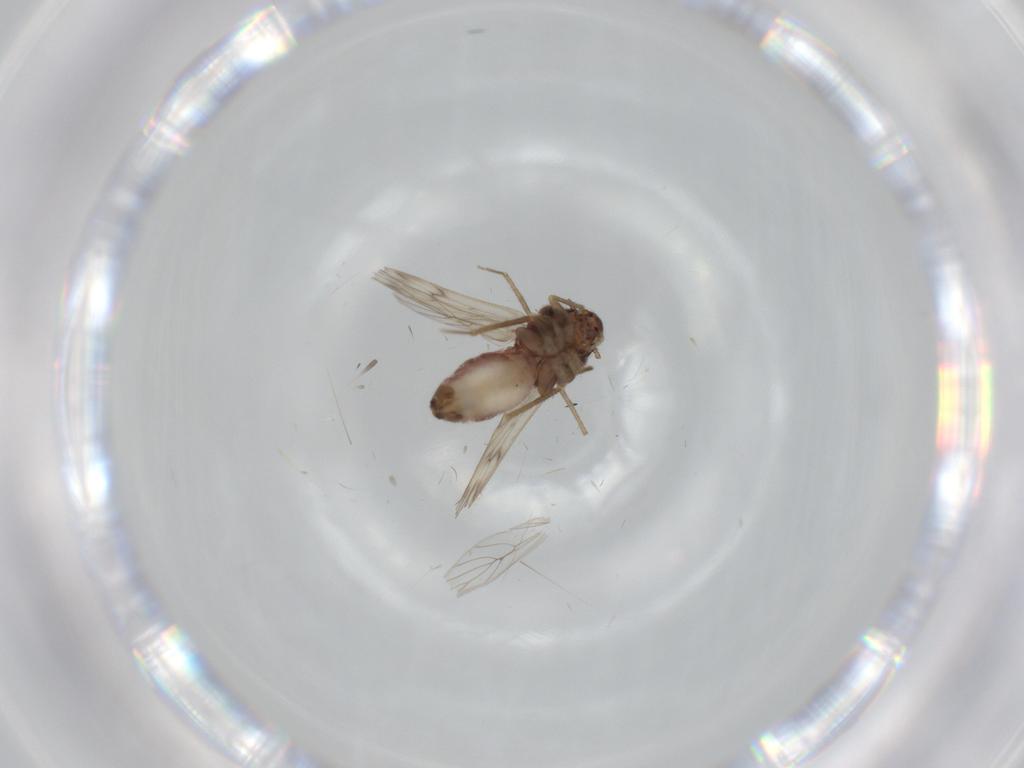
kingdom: Animalia
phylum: Arthropoda
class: Insecta
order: Psocodea
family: Lepidopsocidae
